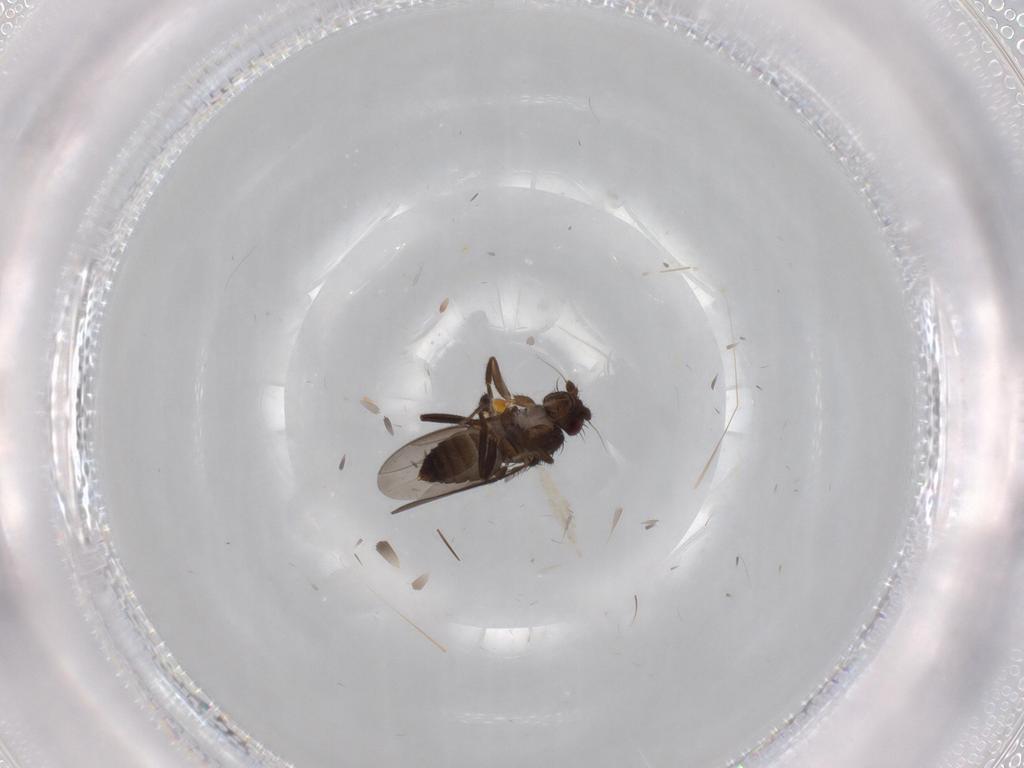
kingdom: Animalia
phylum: Arthropoda
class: Insecta
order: Diptera
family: Sphaeroceridae
